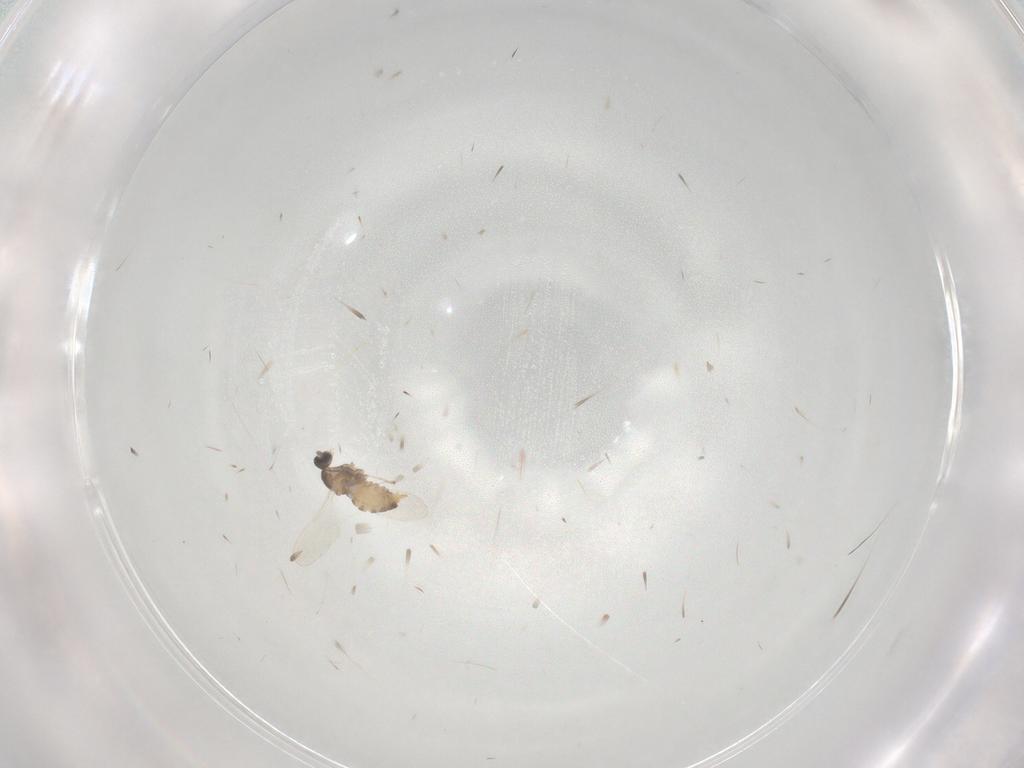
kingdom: Animalia
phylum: Arthropoda
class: Insecta
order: Diptera
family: Cecidomyiidae
